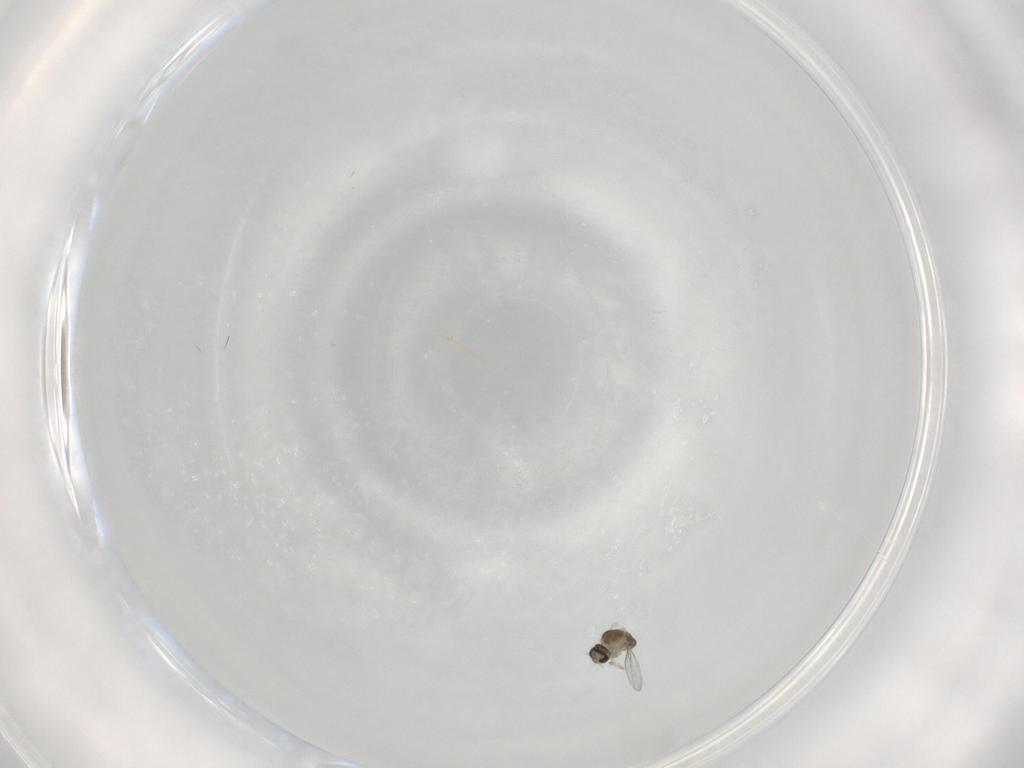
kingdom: Animalia
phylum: Arthropoda
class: Insecta
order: Diptera
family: Cecidomyiidae
